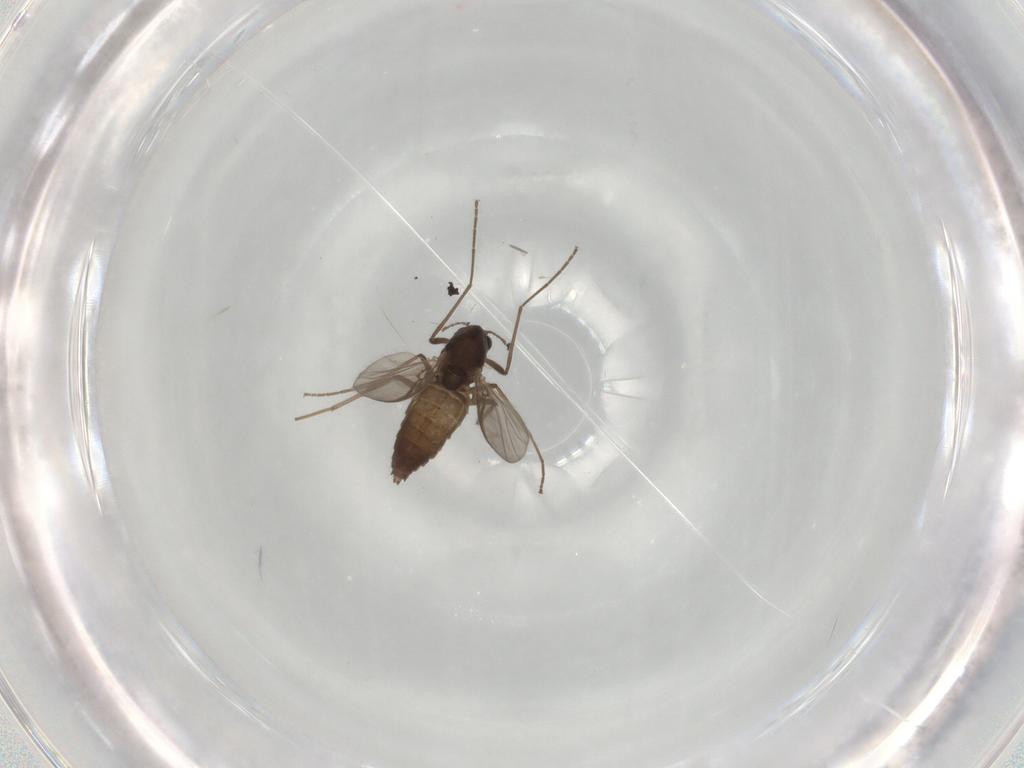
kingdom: Animalia
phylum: Arthropoda
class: Insecta
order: Diptera
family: Chironomidae
